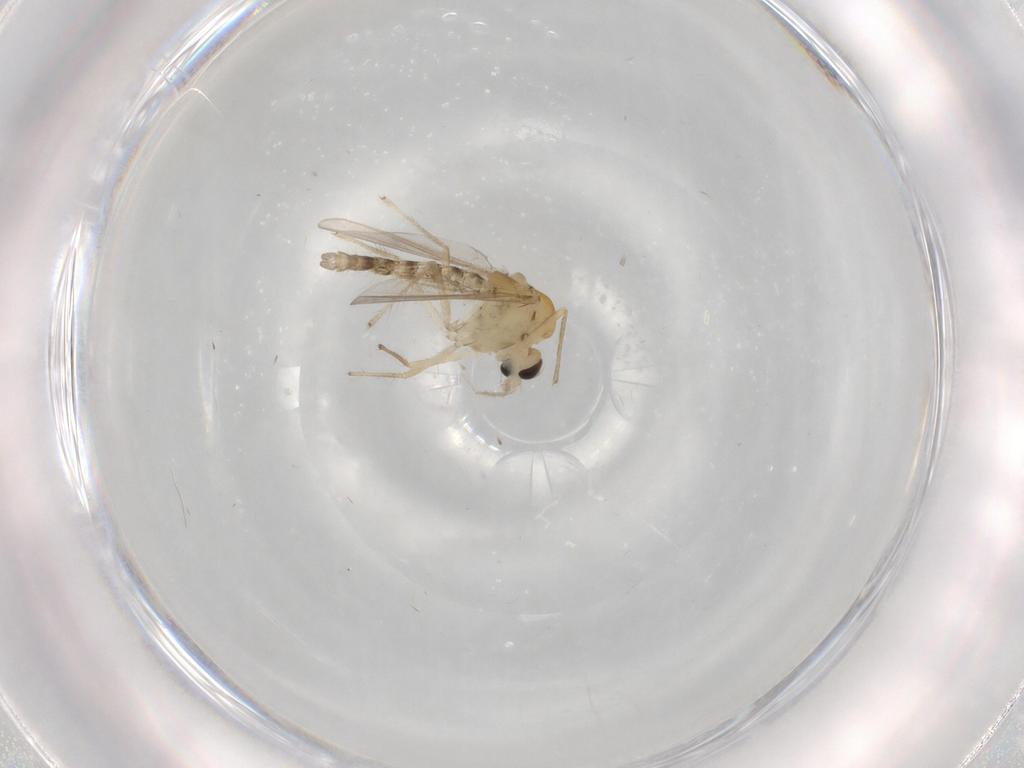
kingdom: Animalia
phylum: Arthropoda
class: Insecta
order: Diptera
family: Chironomidae
